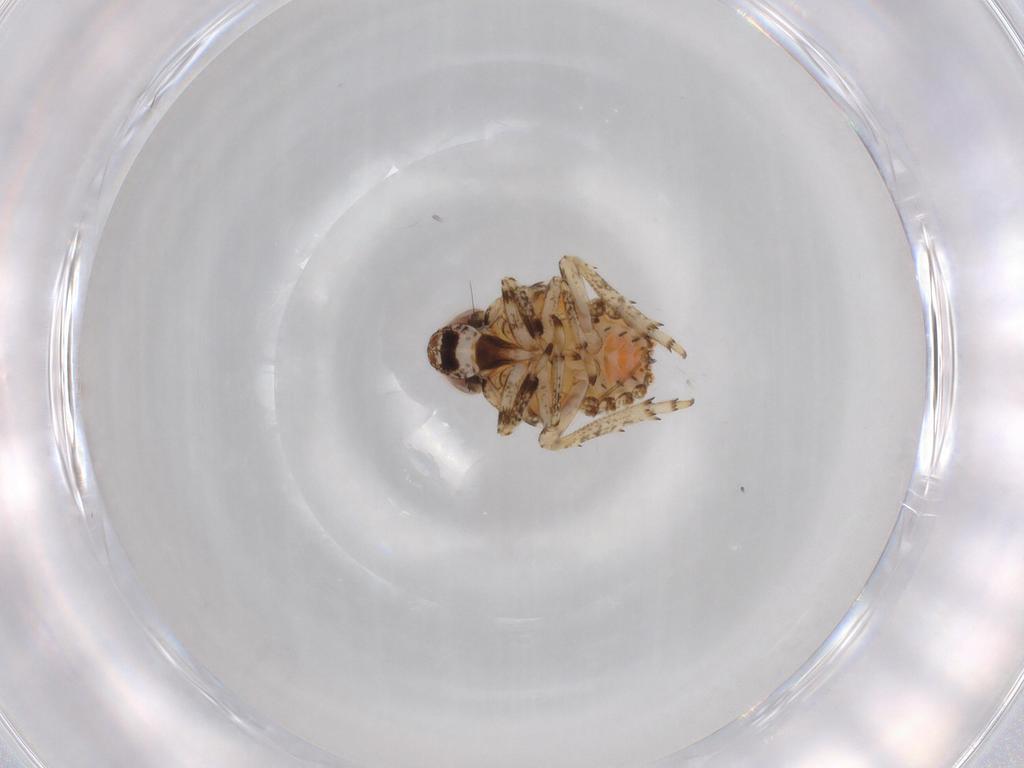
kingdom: Animalia
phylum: Arthropoda
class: Insecta
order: Hemiptera
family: Issidae
